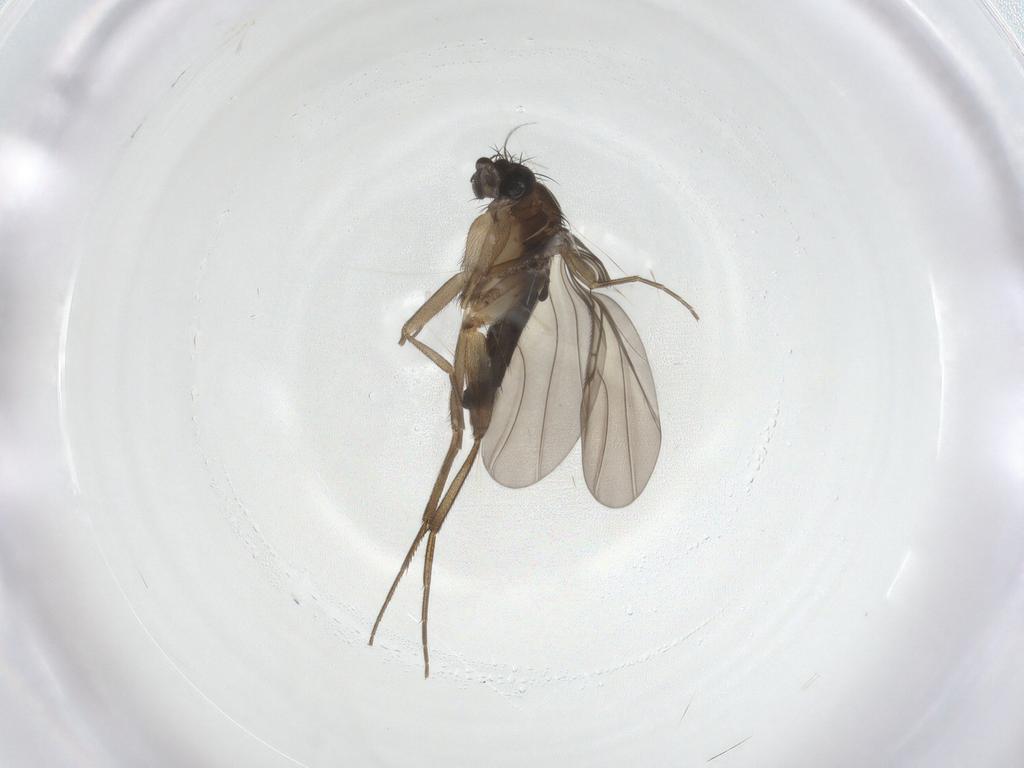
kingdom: Animalia
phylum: Arthropoda
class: Insecta
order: Diptera
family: Phoridae
